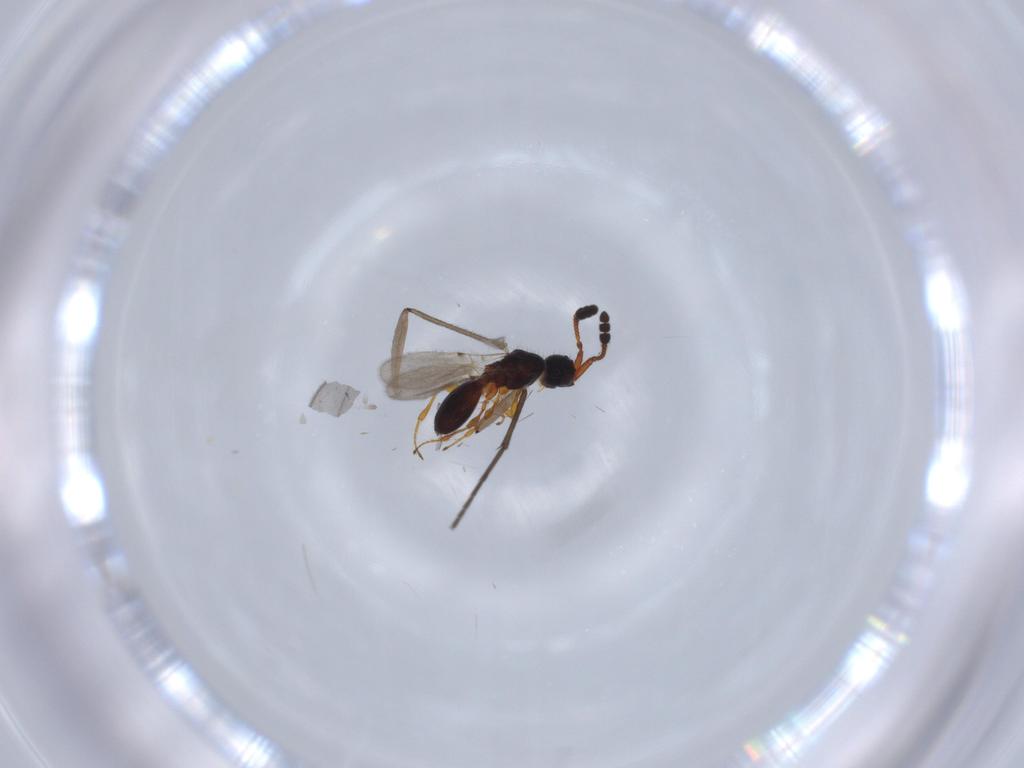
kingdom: Animalia
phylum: Arthropoda
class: Insecta
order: Hymenoptera
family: Diapriidae
